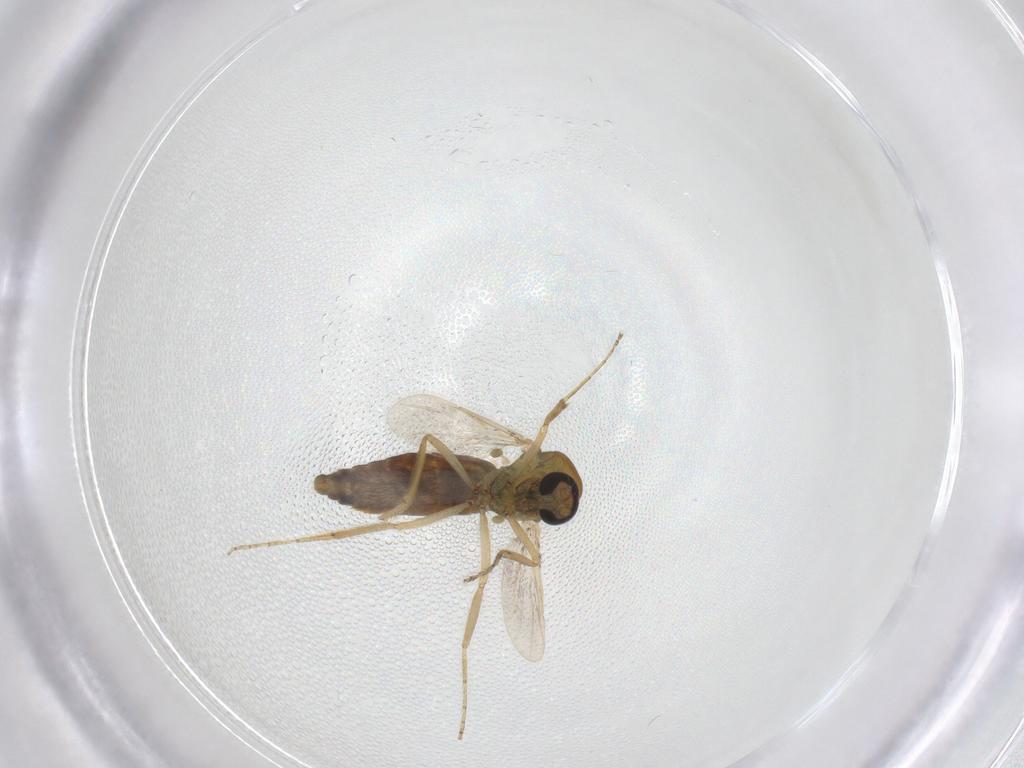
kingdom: Animalia
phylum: Arthropoda
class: Insecta
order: Diptera
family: Ceratopogonidae
